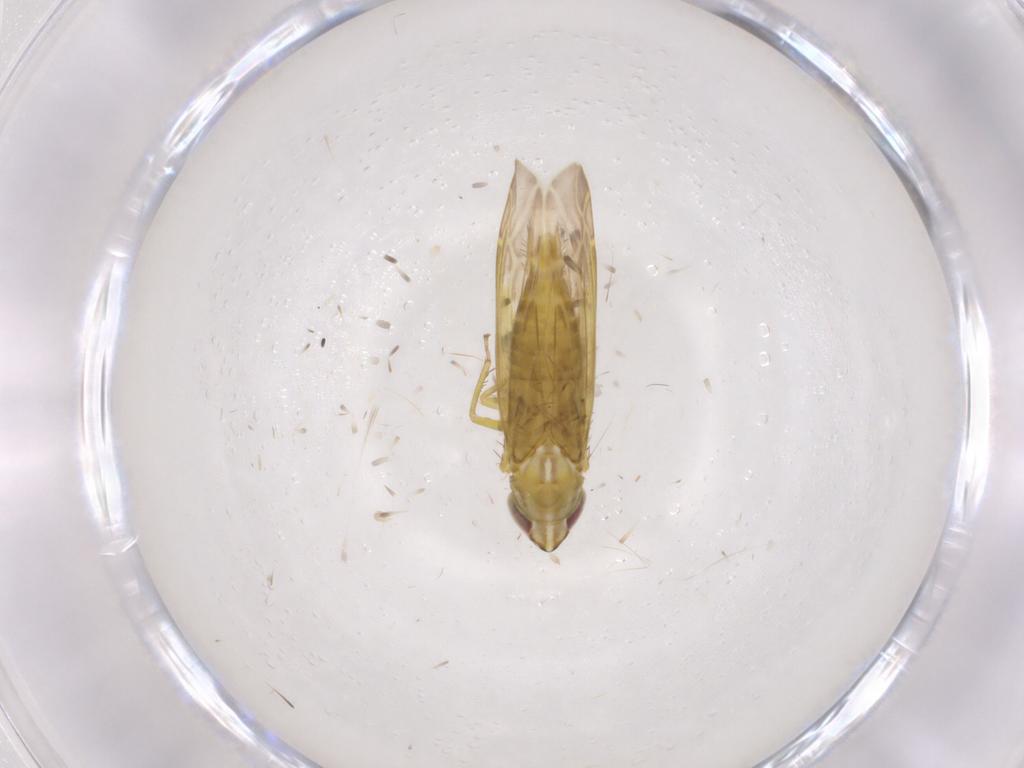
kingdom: Animalia
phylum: Arthropoda
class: Insecta
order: Hemiptera
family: Cicadellidae
